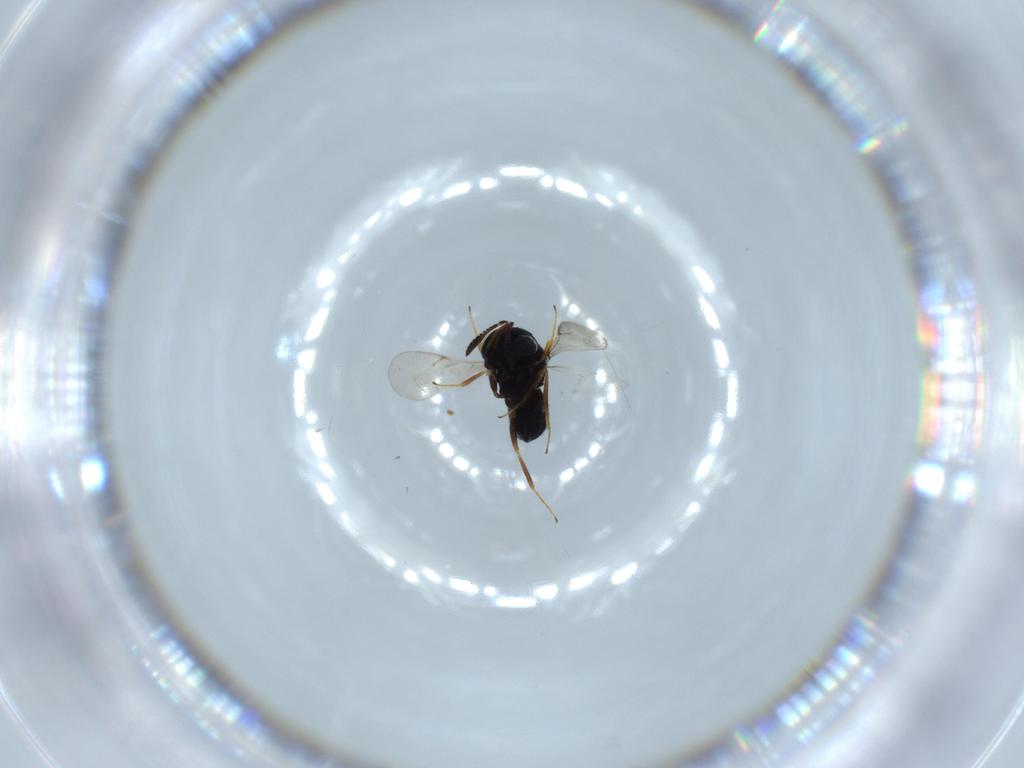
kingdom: Animalia
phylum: Arthropoda
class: Insecta
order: Hymenoptera
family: Scelionidae
